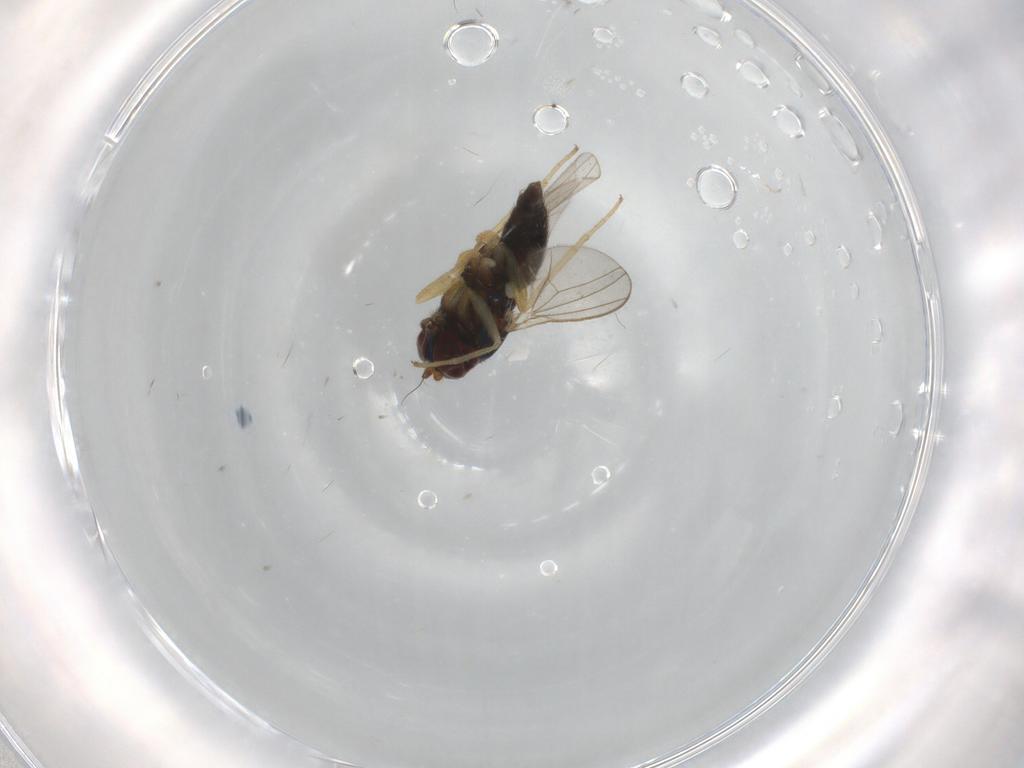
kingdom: Animalia
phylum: Arthropoda
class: Insecta
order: Diptera
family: Dolichopodidae
